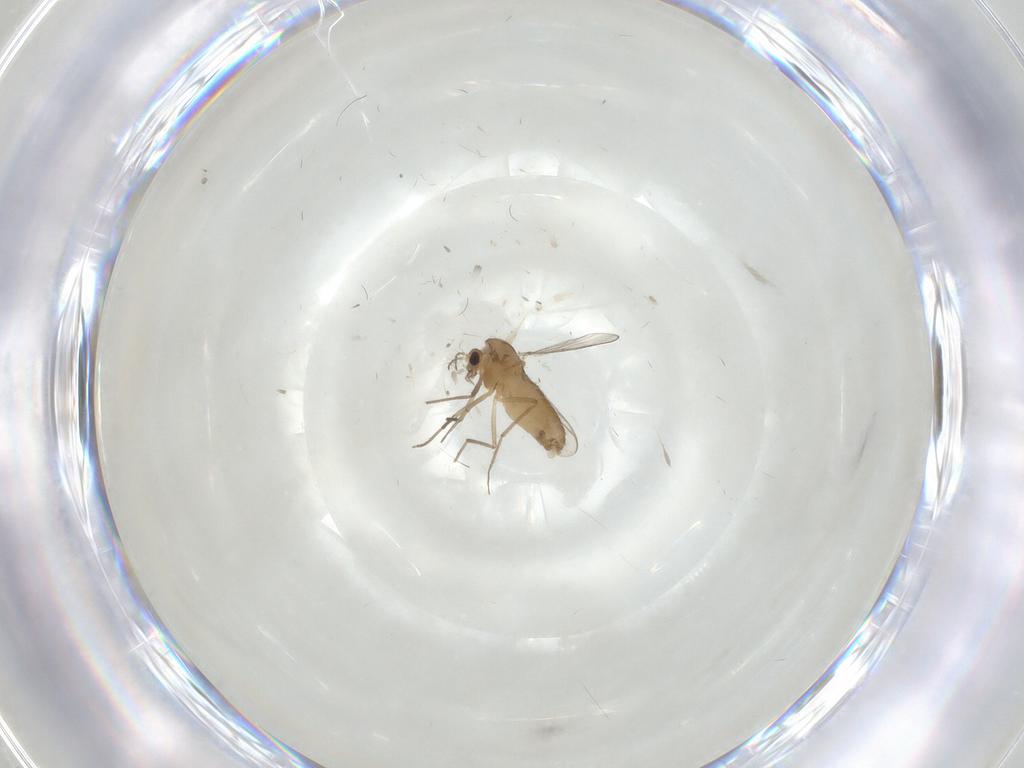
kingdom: Animalia
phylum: Arthropoda
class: Insecta
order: Diptera
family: Chironomidae
